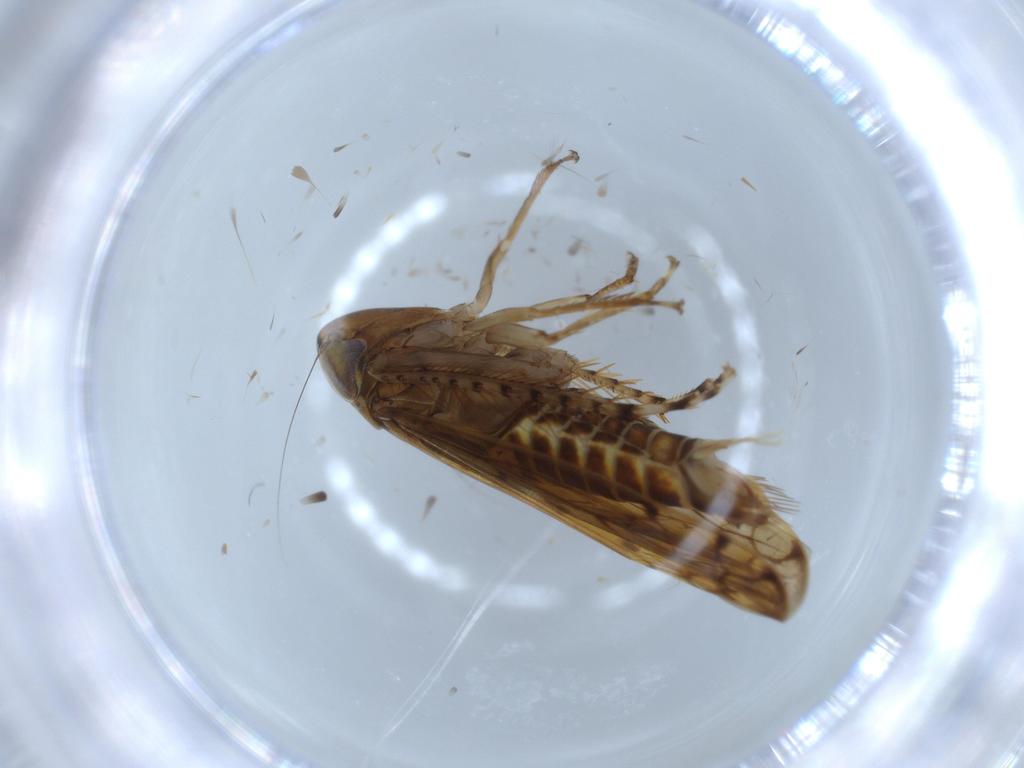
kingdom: Animalia
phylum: Arthropoda
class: Insecta
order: Hemiptera
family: Cicadellidae
